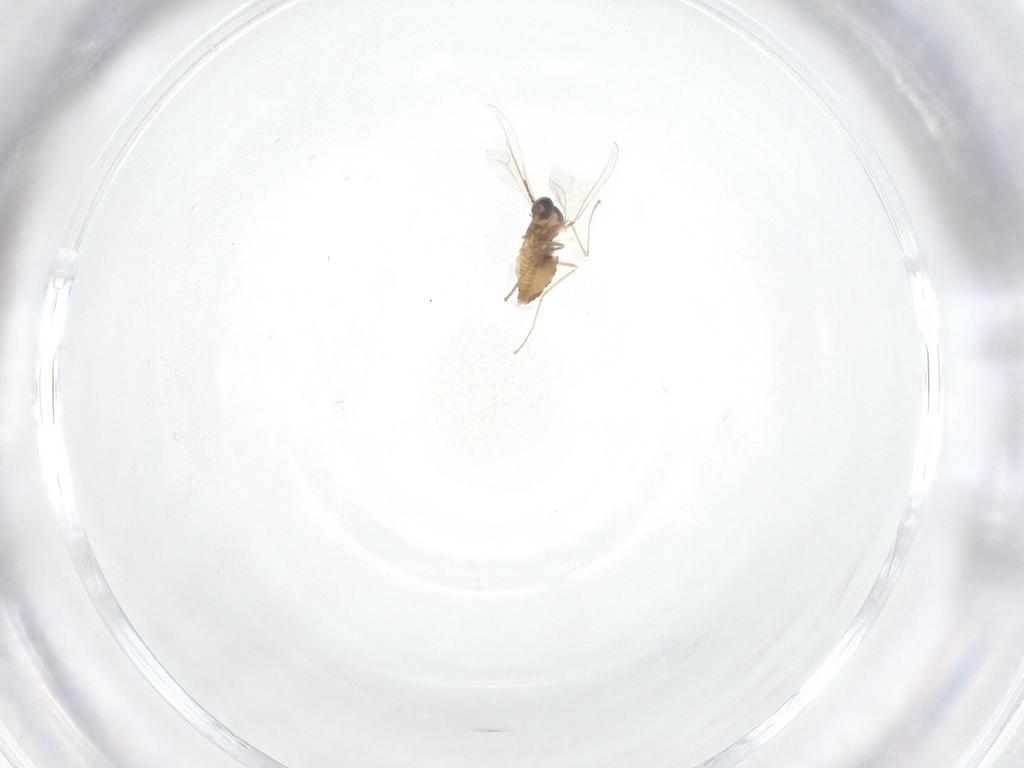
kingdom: Animalia
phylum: Arthropoda
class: Insecta
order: Diptera
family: Cecidomyiidae
